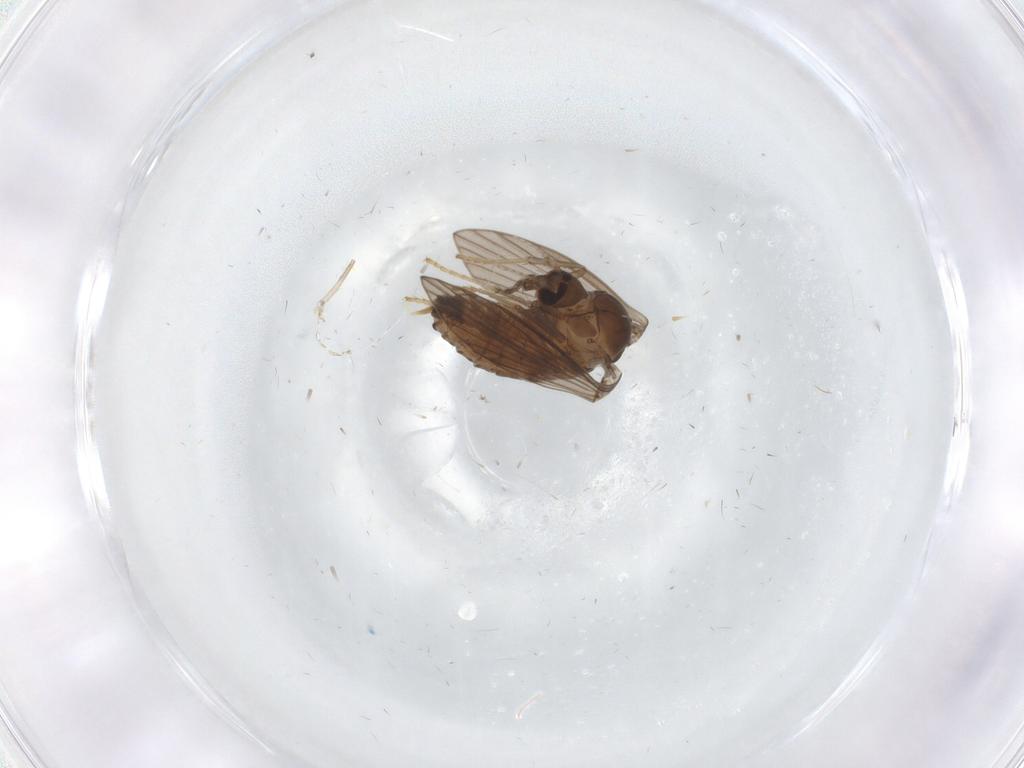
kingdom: Animalia
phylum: Arthropoda
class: Insecta
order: Diptera
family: Psychodidae
